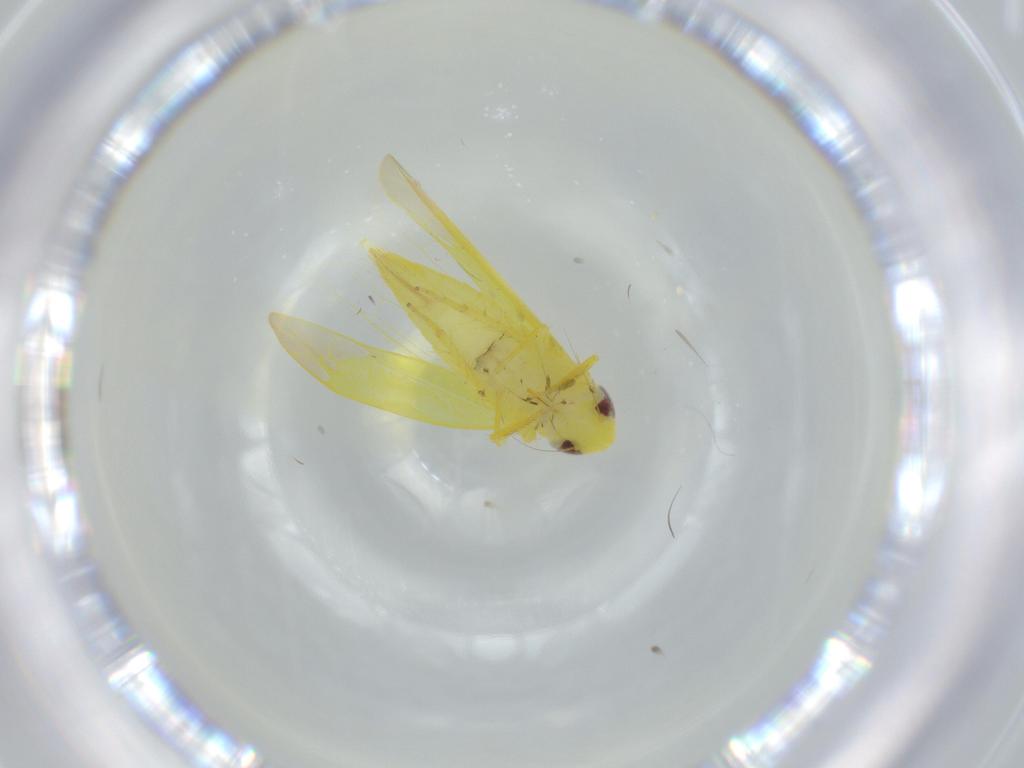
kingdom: Animalia
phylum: Arthropoda
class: Insecta
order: Hemiptera
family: Cicadellidae
